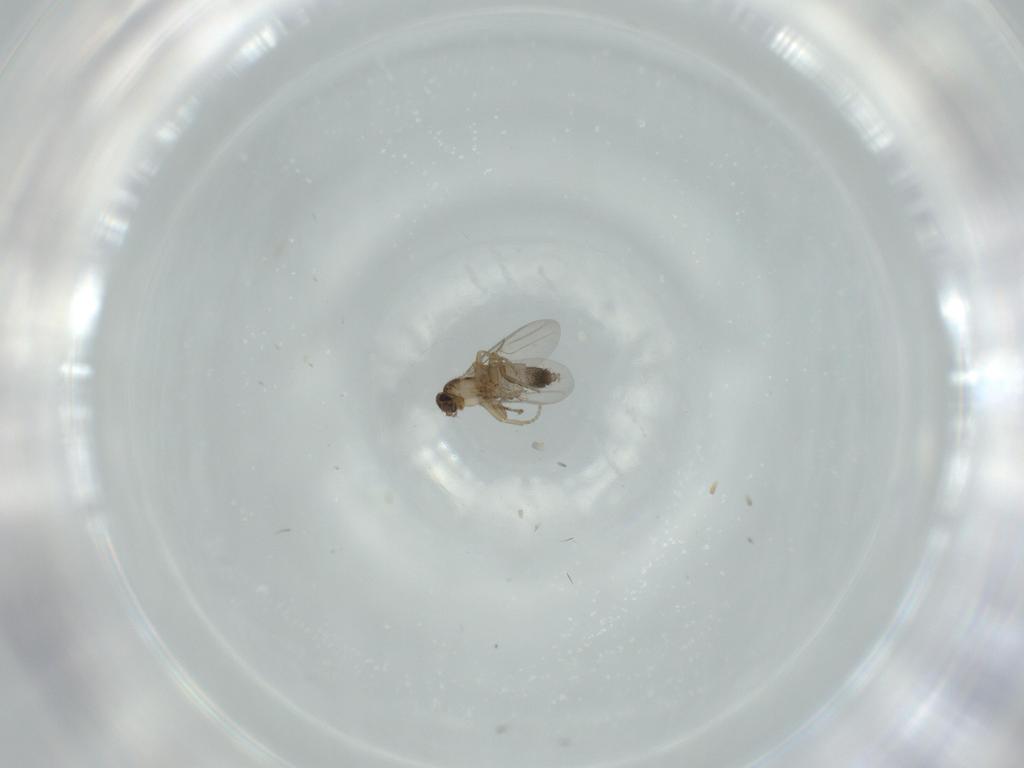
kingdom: Animalia
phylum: Arthropoda
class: Insecta
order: Diptera
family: Phoridae
